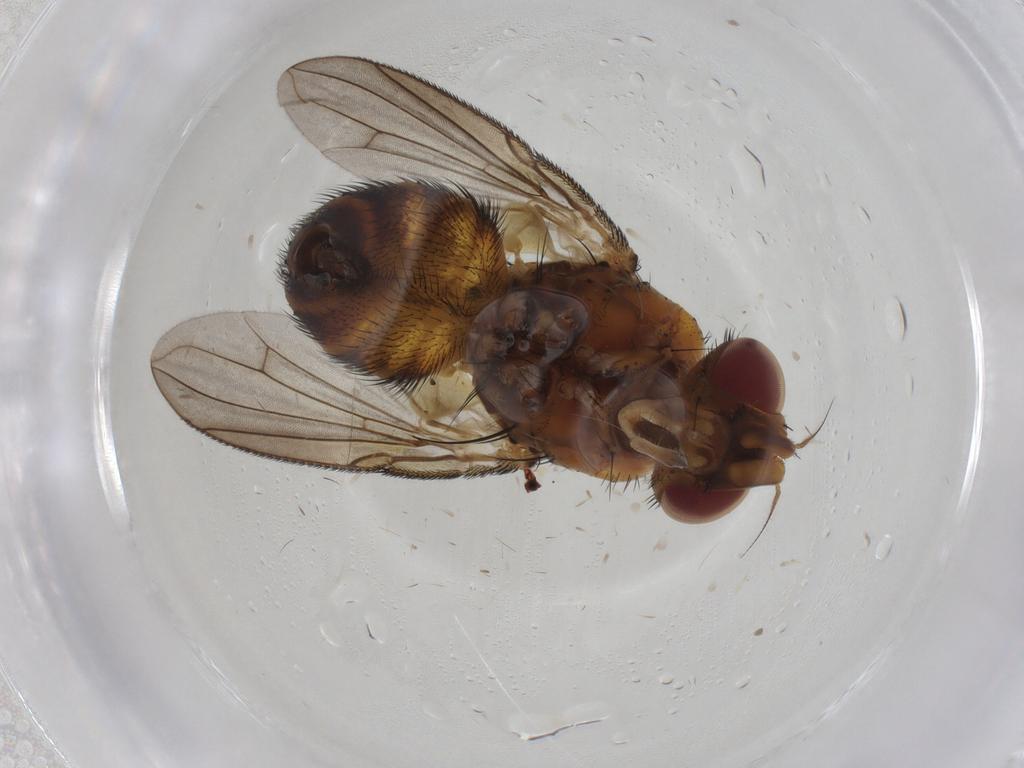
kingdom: Animalia
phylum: Arthropoda
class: Insecta
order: Diptera
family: Tachinidae
